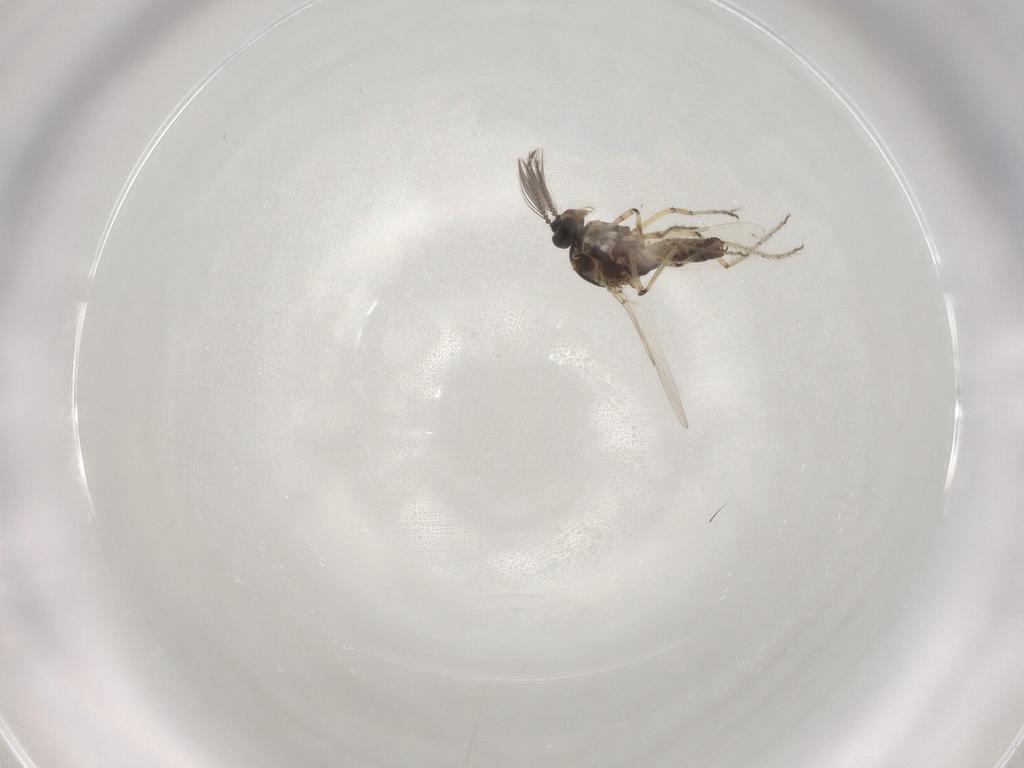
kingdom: Animalia
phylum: Arthropoda
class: Insecta
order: Diptera
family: Ceratopogonidae
